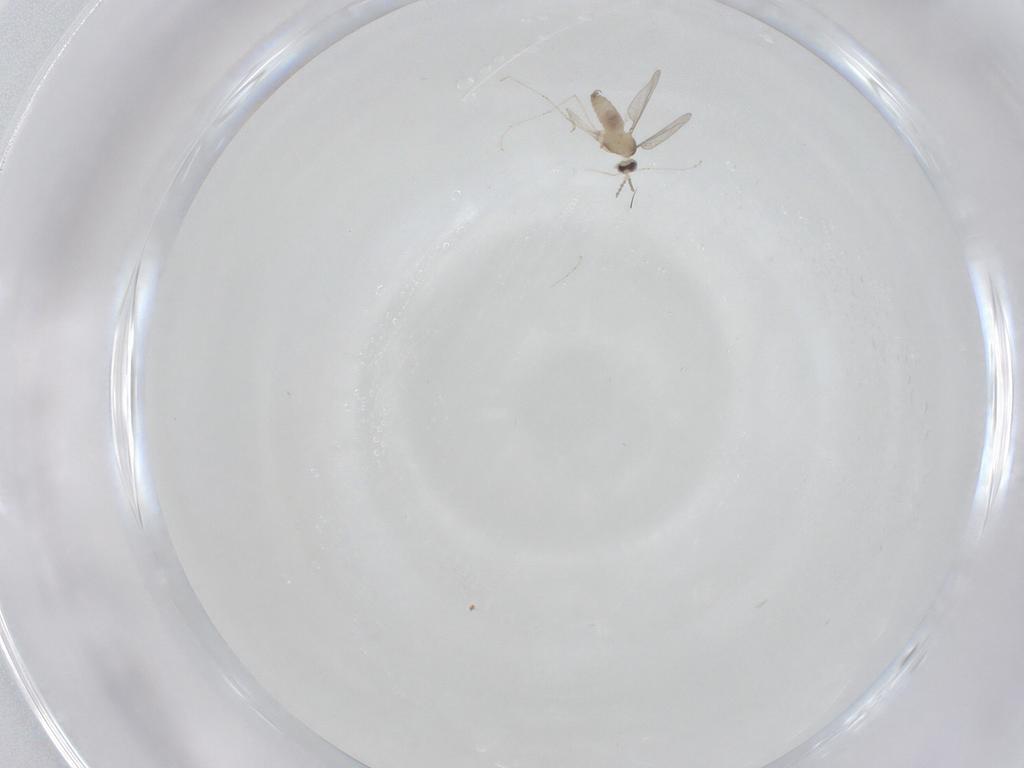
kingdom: Animalia
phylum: Arthropoda
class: Insecta
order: Diptera
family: Cecidomyiidae
